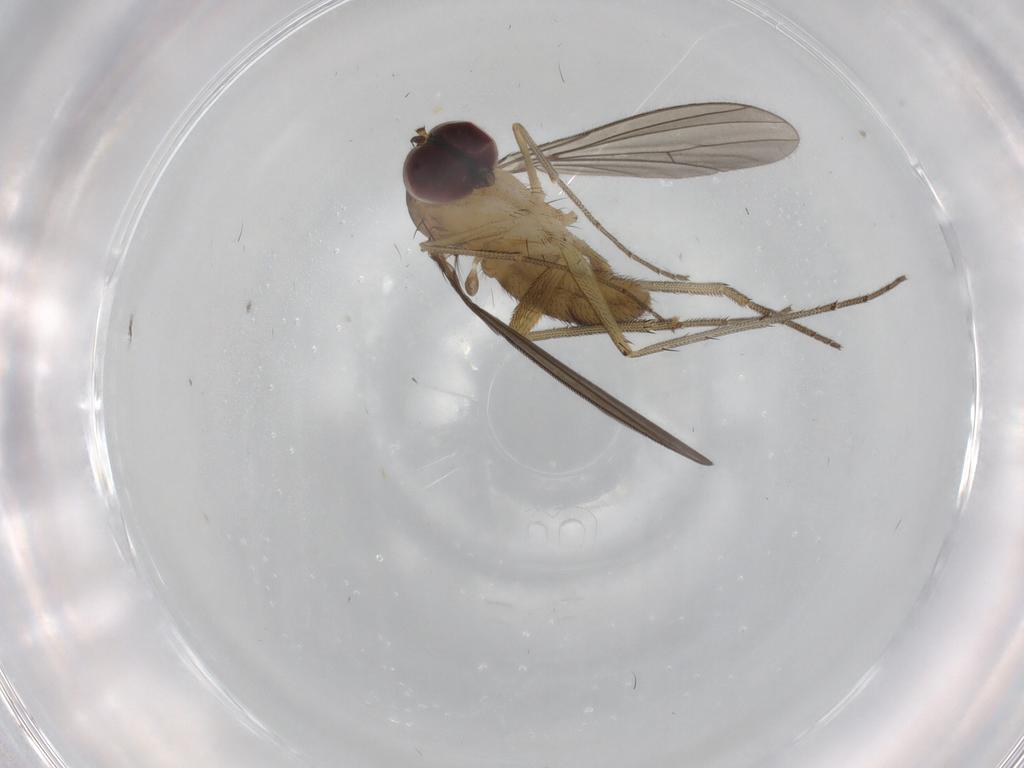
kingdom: Animalia
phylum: Arthropoda
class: Insecta
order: Diptera
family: Dolichopodidae
